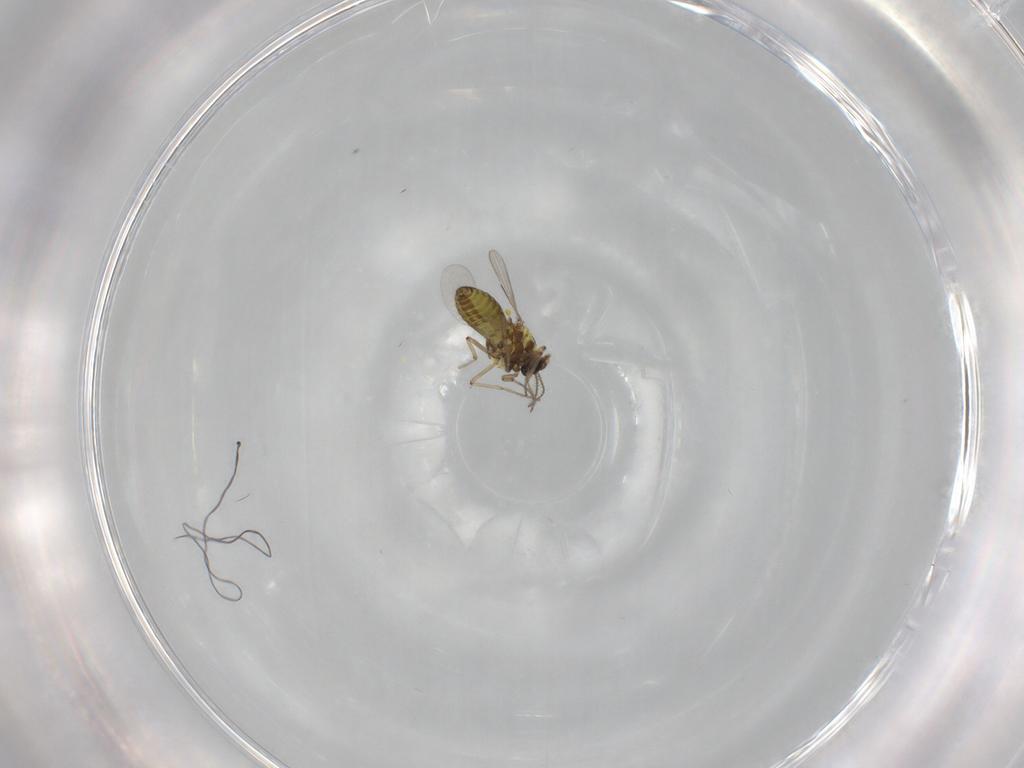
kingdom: Animalia
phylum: Arthropoda
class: Insecta
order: Diptera
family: Ceratopogonidae
